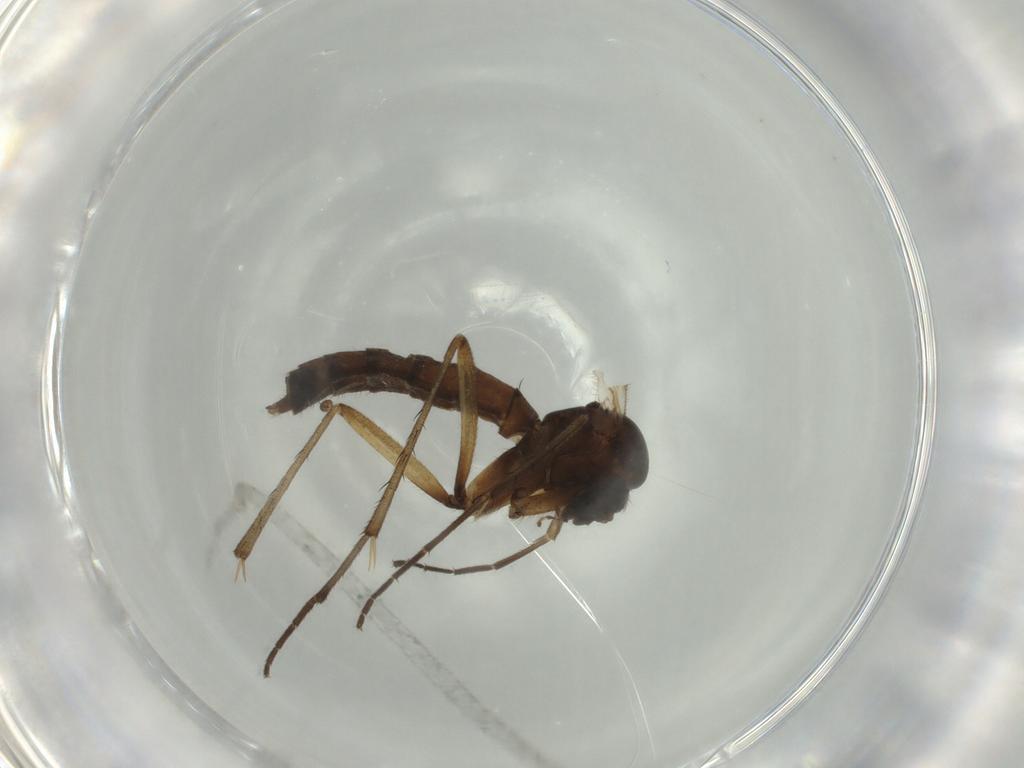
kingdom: Animalia
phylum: Arthropoda
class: Insecta
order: Diptera
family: Mycetophilidae
